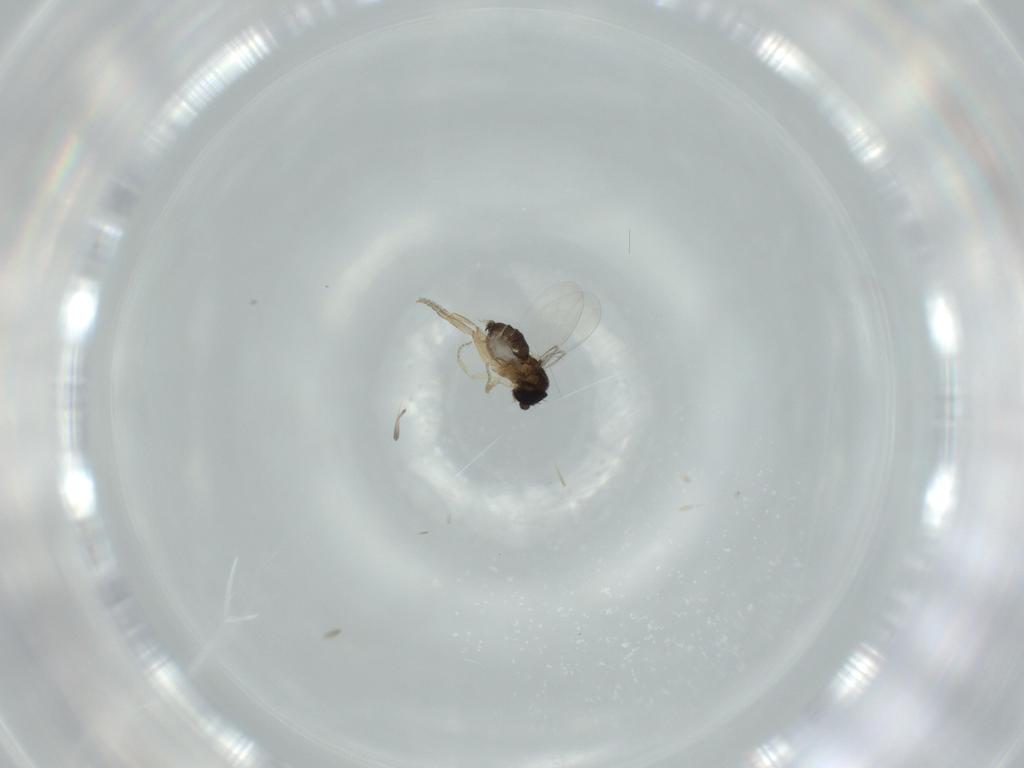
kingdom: Animalia
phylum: Arthropoda
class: Insecta
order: Diptera
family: Phoridae
